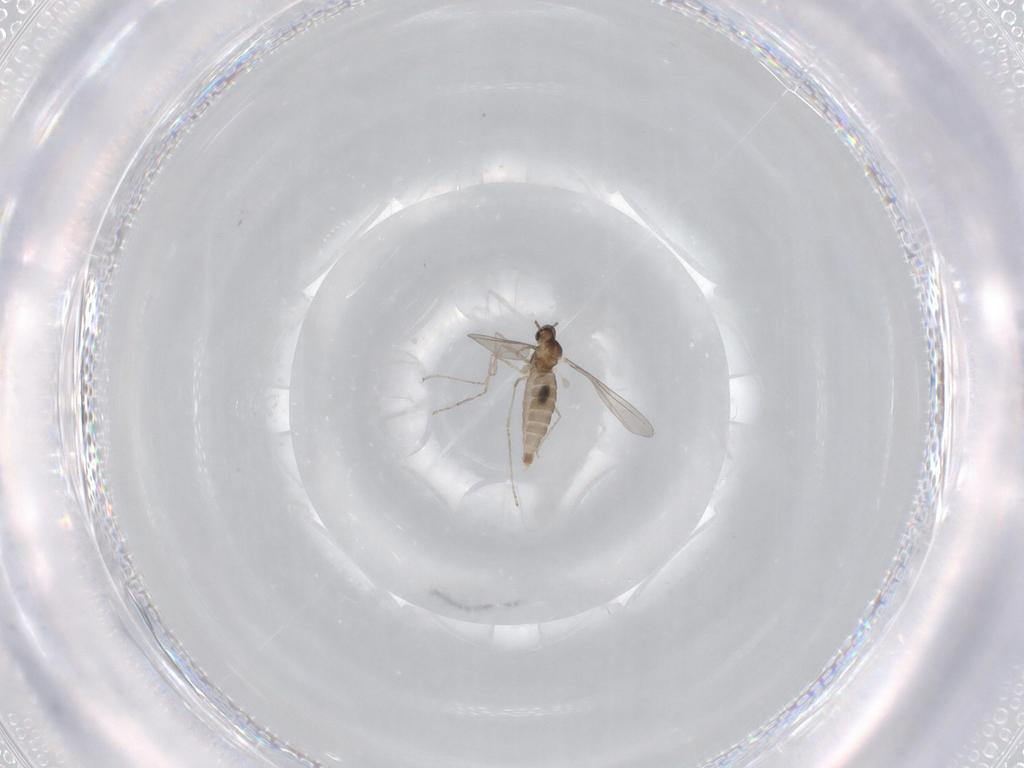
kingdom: Animalia
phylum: Arthropoda
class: Insecta
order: Diptera
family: Chironomidae
